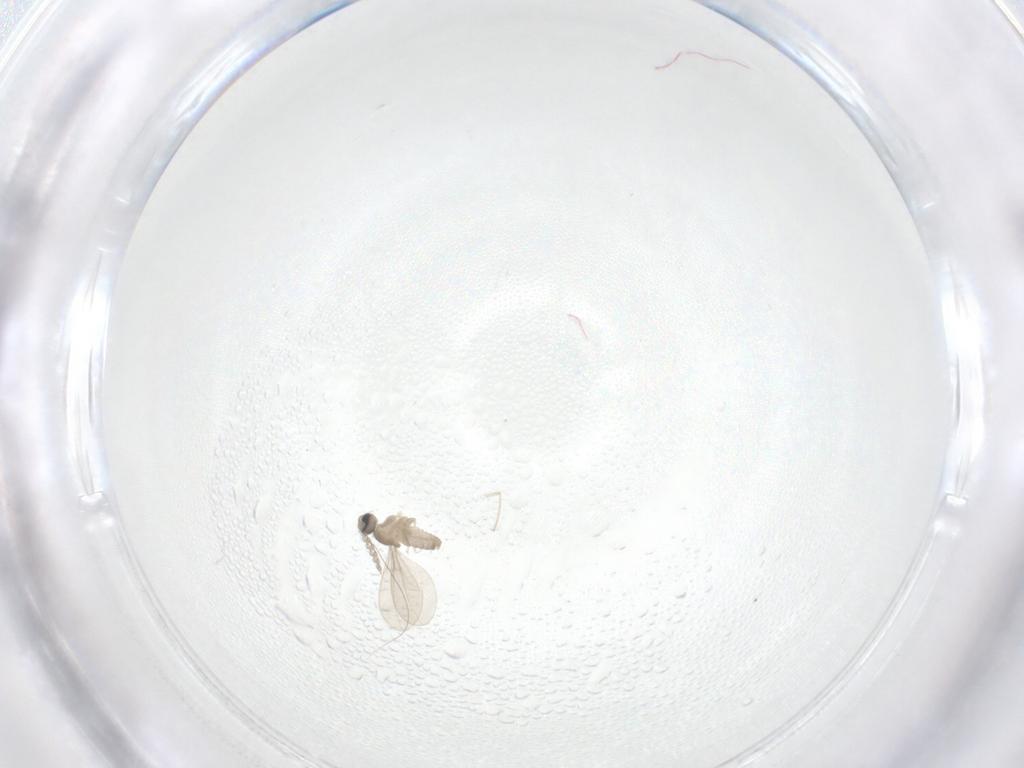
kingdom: Animalia
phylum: Arthropoda
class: Insecta
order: Diptera
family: Cecidomyiidae
